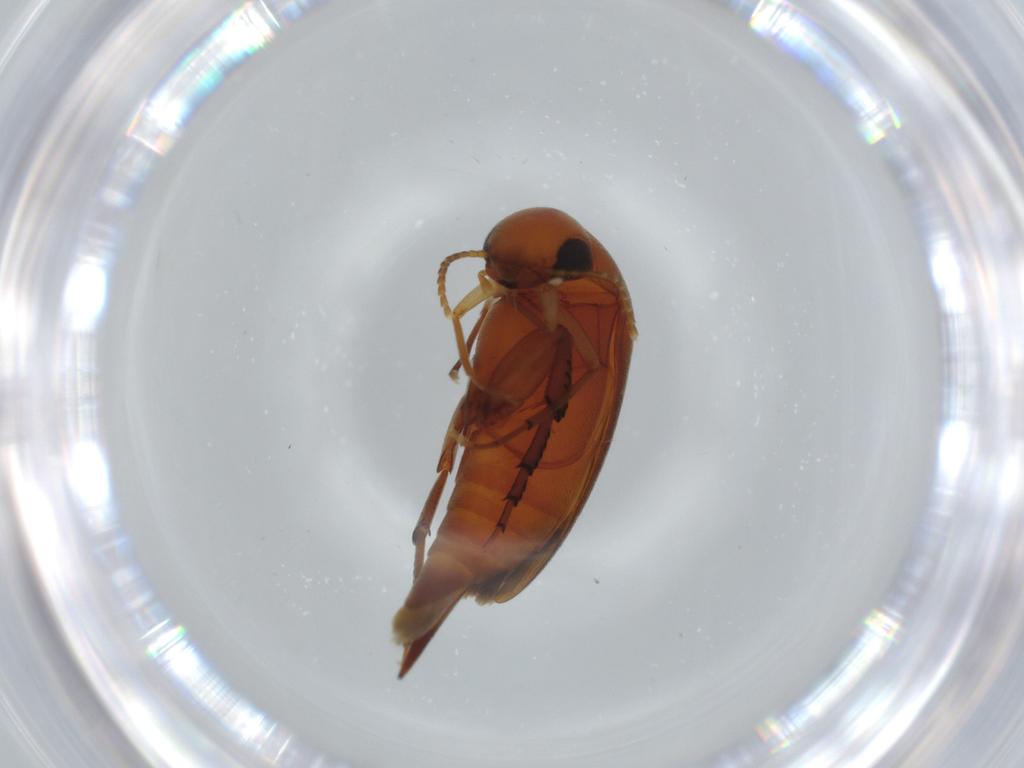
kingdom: Animalia
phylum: Arthropoda
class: Insecta
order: Coleoptera
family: Mordellidae
